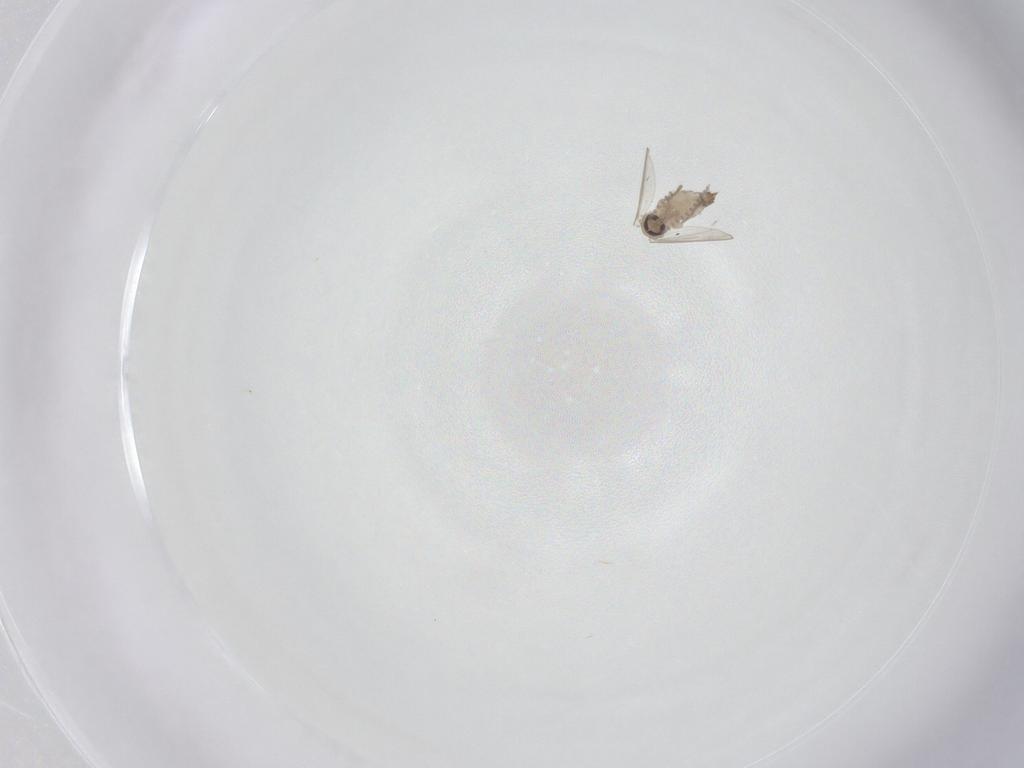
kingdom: Animalia
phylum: Arthropoda
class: Insecta
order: Diptera
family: Psychodidae
